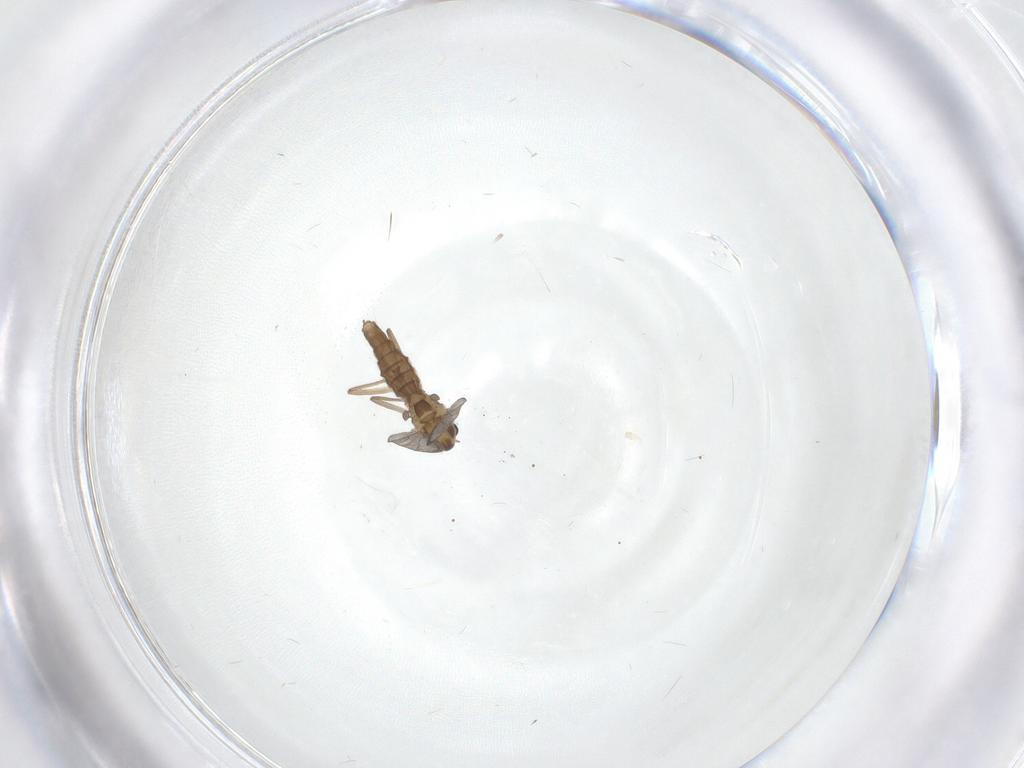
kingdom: Animalia
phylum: Arthropoda
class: Insecta
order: Diptera
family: Chironomidae
